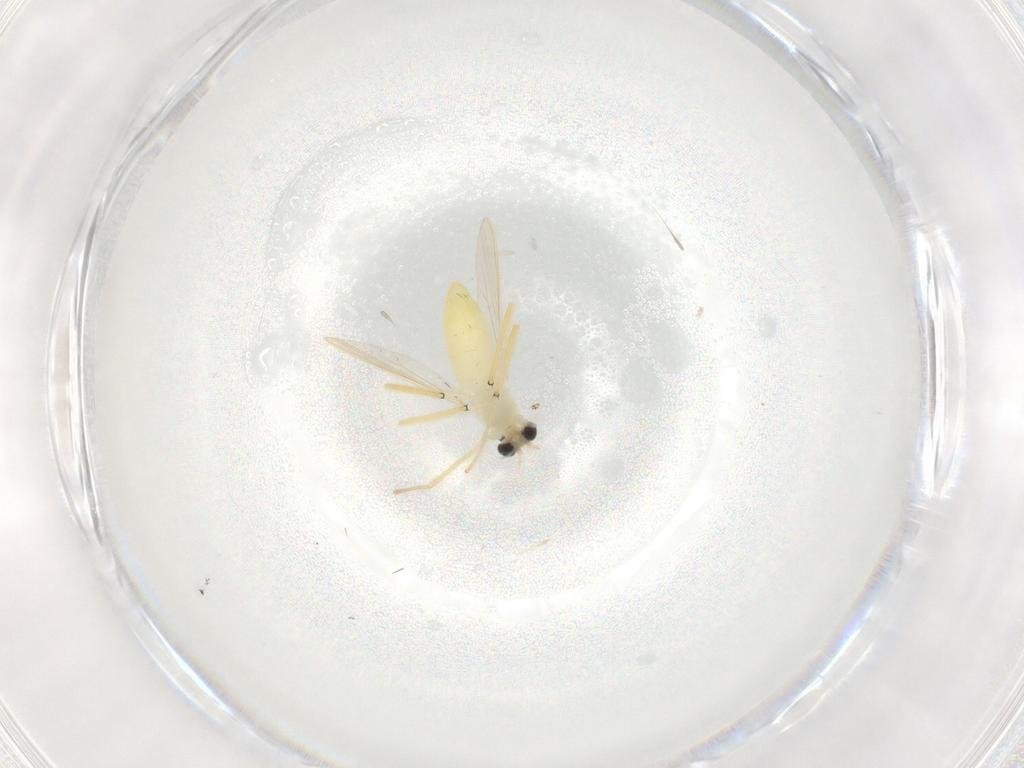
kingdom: Animalia
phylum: Arthropoda
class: Insecta
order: Diptera
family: Chironomidae
